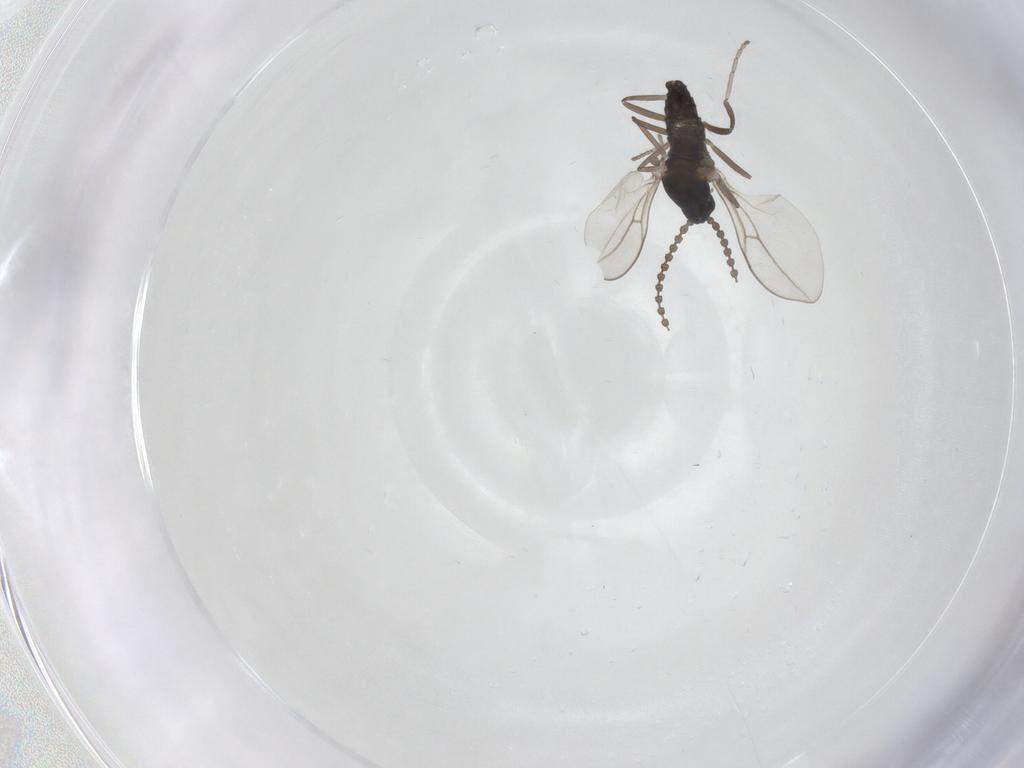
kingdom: Animalia
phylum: Arthropoda
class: Insecta
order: Diptera
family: Cecidomyiidae
